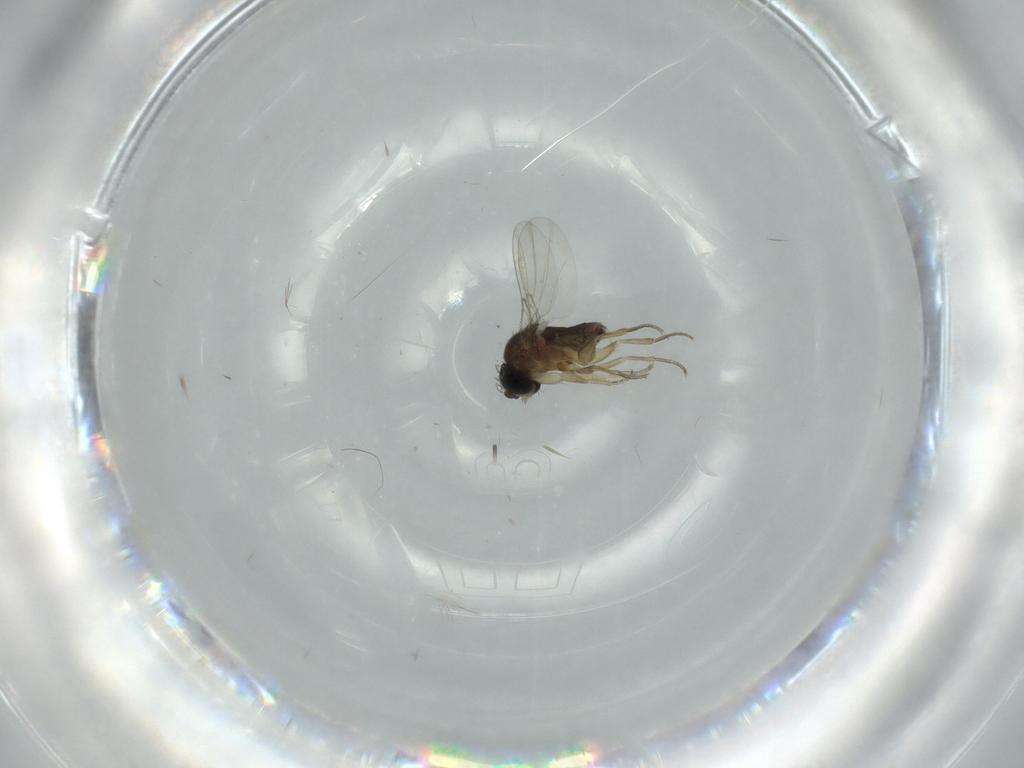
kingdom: Animalia
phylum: Arthropoda
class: Insecta
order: Diptera
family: Phoridae
